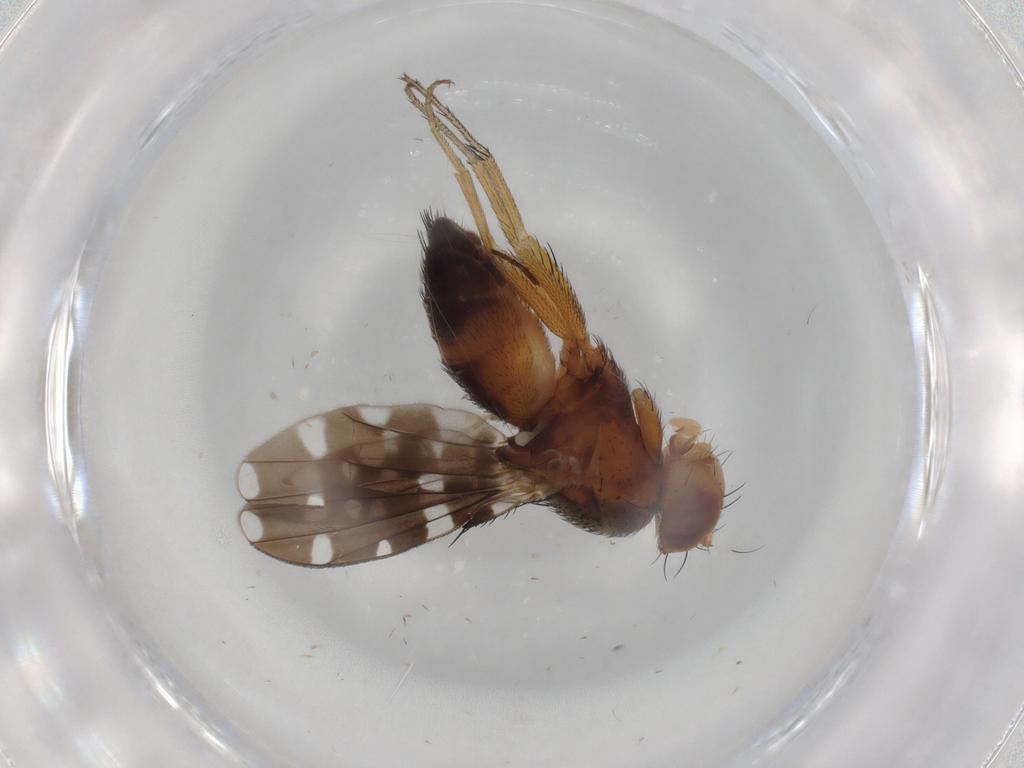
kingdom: Animalia
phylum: Arthropoda
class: Insecta
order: Diptera
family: Ephydridae
